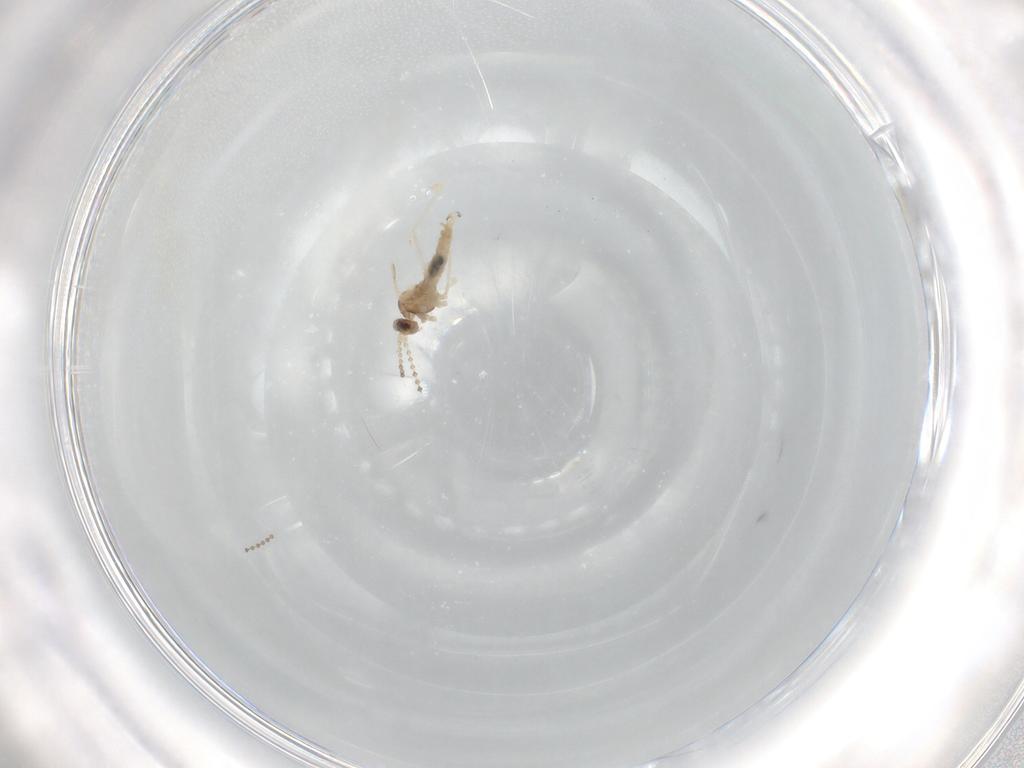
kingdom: Animalia
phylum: Arthropoda
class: Insecta
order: Diptera
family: Cecidomyiidae
